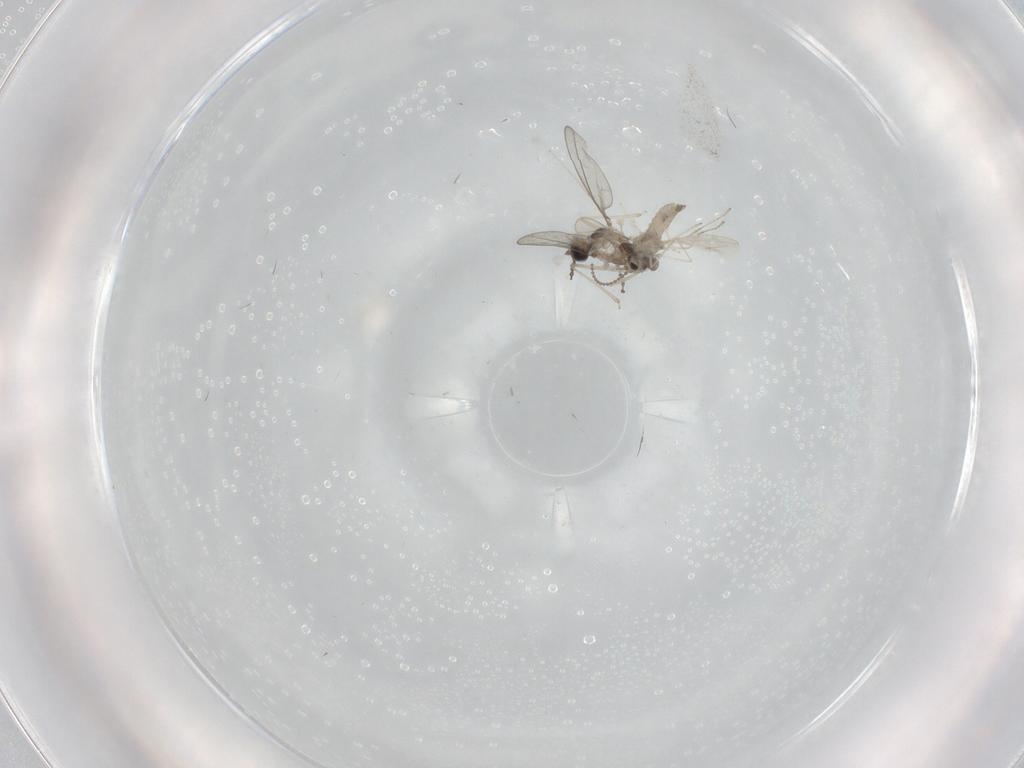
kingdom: Animalia
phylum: Arthropoda
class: Insecta
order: Diptera
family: Cecidomyiidae
